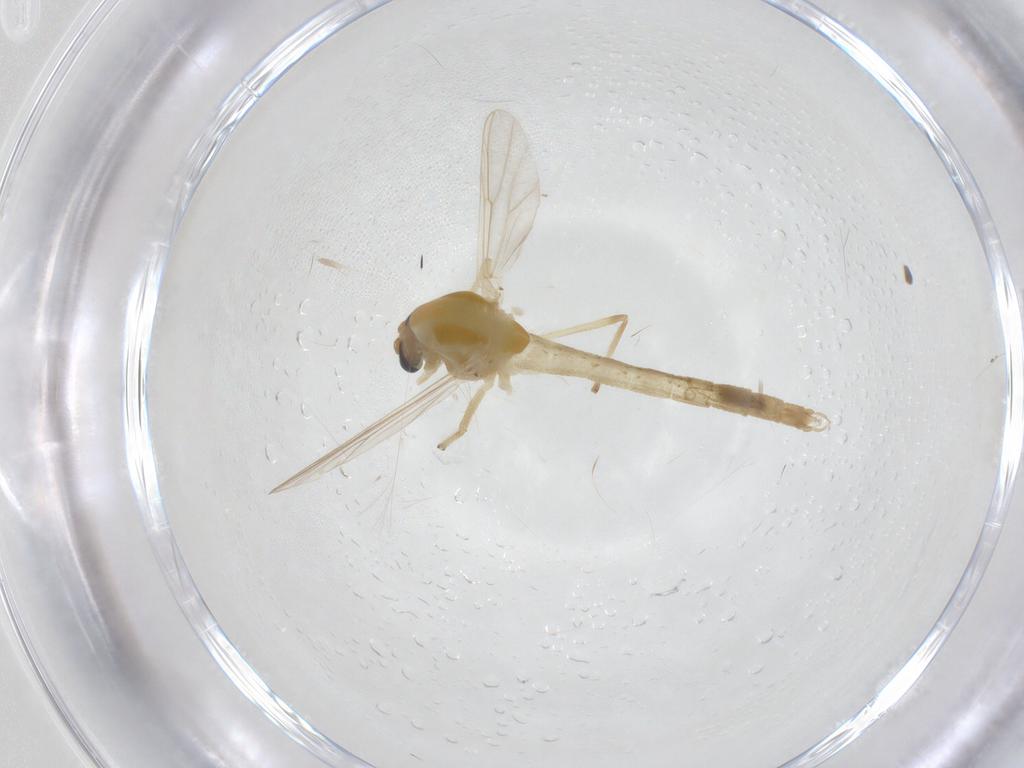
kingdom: Animalia
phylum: Arthropoda
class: Insecta
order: Diptera
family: Chironomidae
